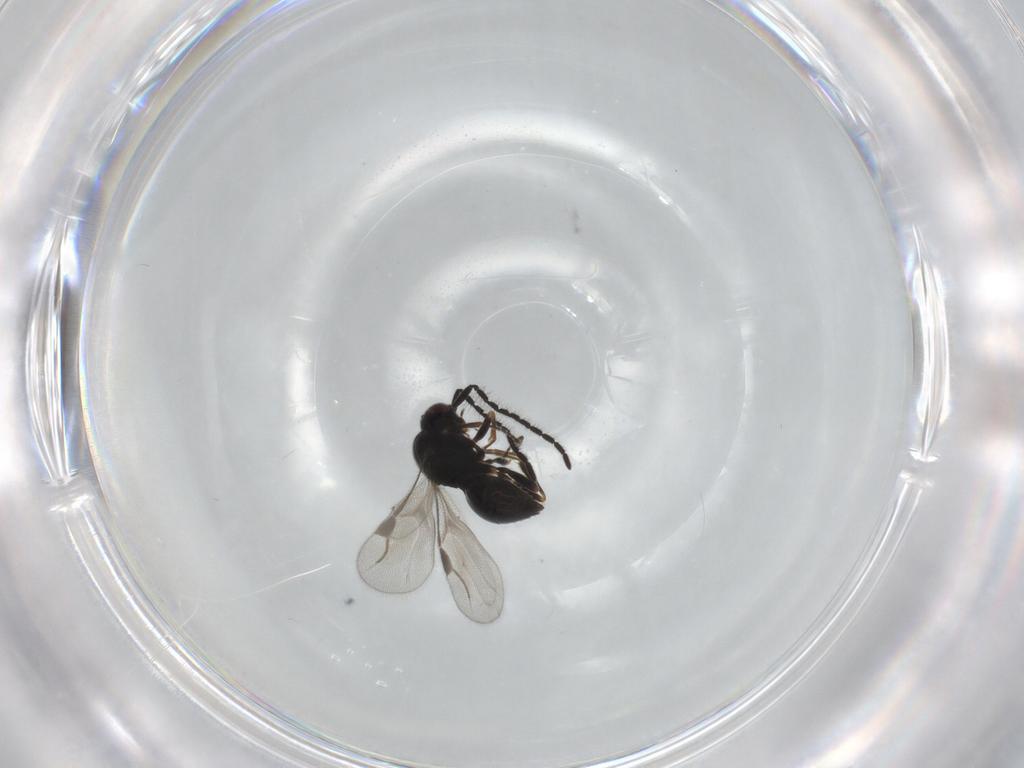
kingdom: Animalia
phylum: Arthropoda
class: Insecta
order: Hymenoptera
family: Megaspilidae
